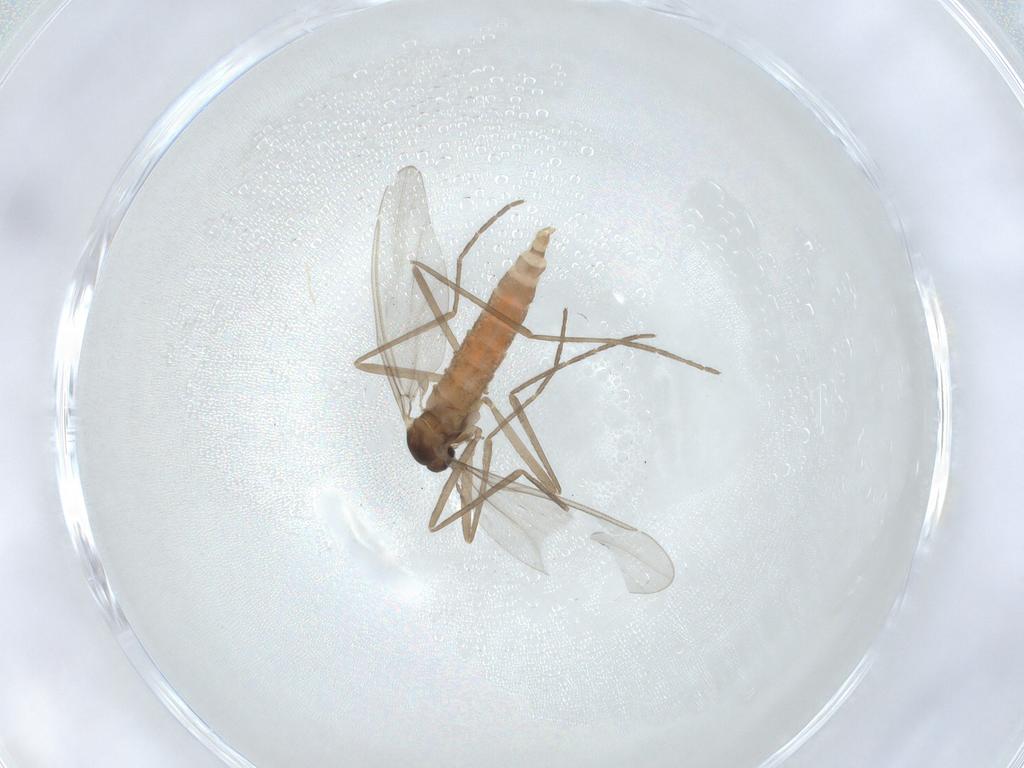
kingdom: Animalia
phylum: Arthropoda
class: Insecta
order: Diptera
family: Cecidomyiidae
